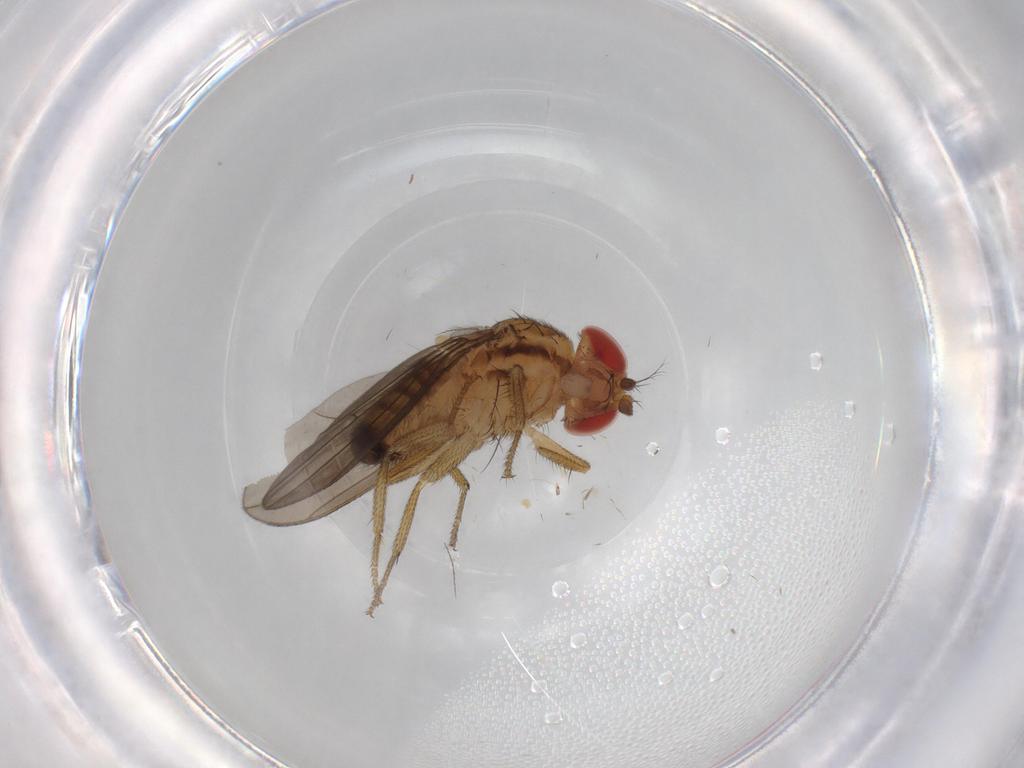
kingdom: Animalia
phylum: Arthropoda
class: Insecta
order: Diptera
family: Drosophilidae
